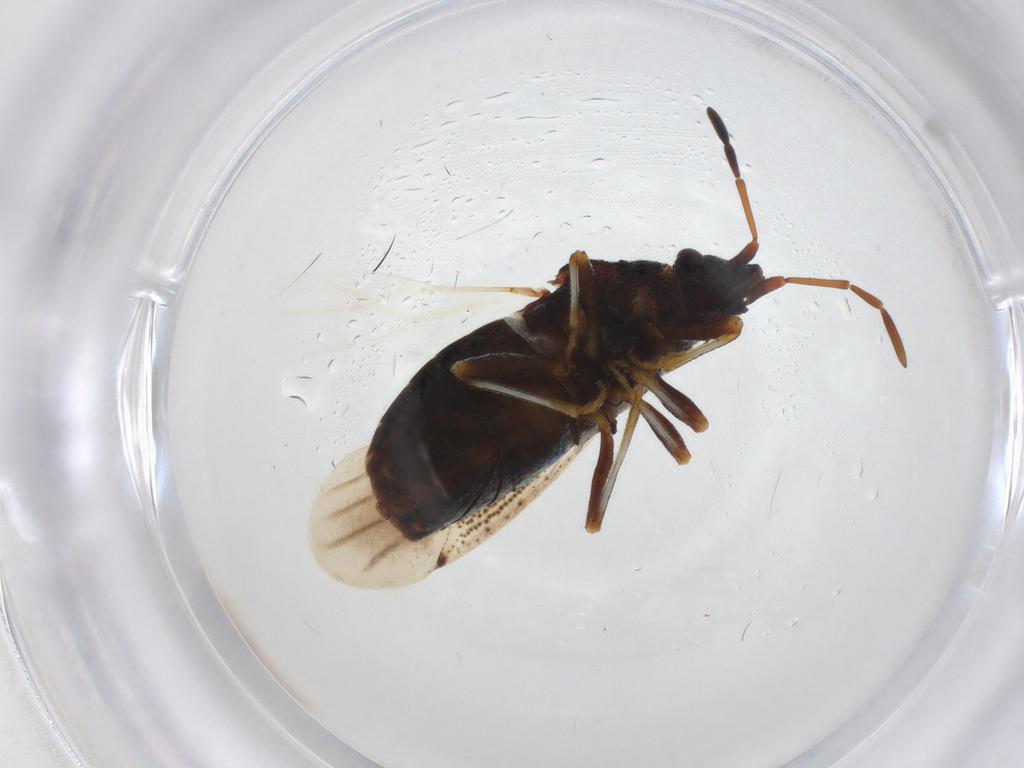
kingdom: Animalia
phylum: Arthropoda
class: Insecta
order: Hemiptera
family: Oxycarenidae
